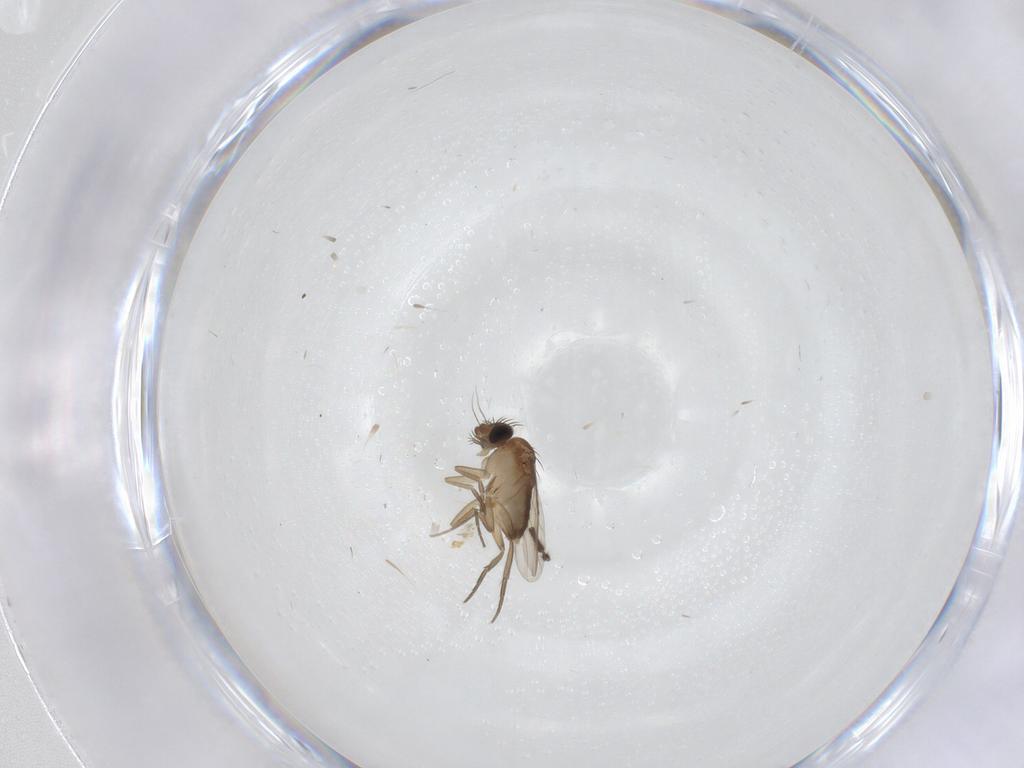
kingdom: Animalia
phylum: Arthropoda
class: Insecta
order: Diptera
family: Phoridae
